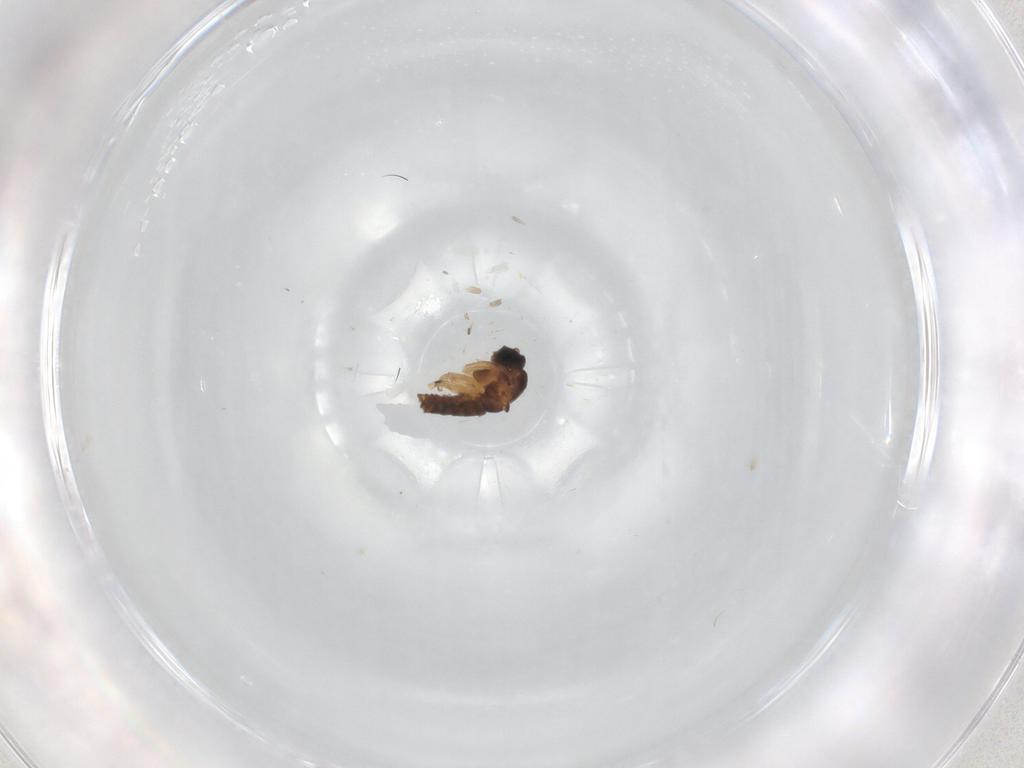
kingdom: Animalia
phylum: Arthropoda
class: Insecta
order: Diptera
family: Sciaridae
